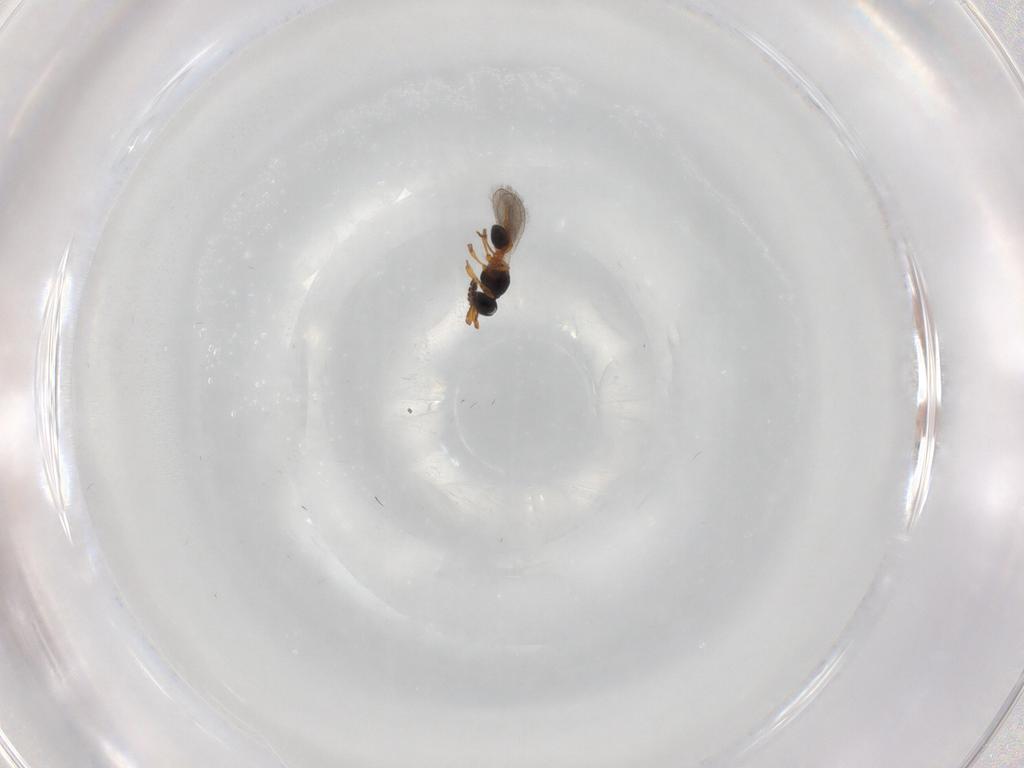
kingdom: Animalia
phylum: Arthropoda
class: Insecta
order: Hymenoptera
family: Platygastridae
